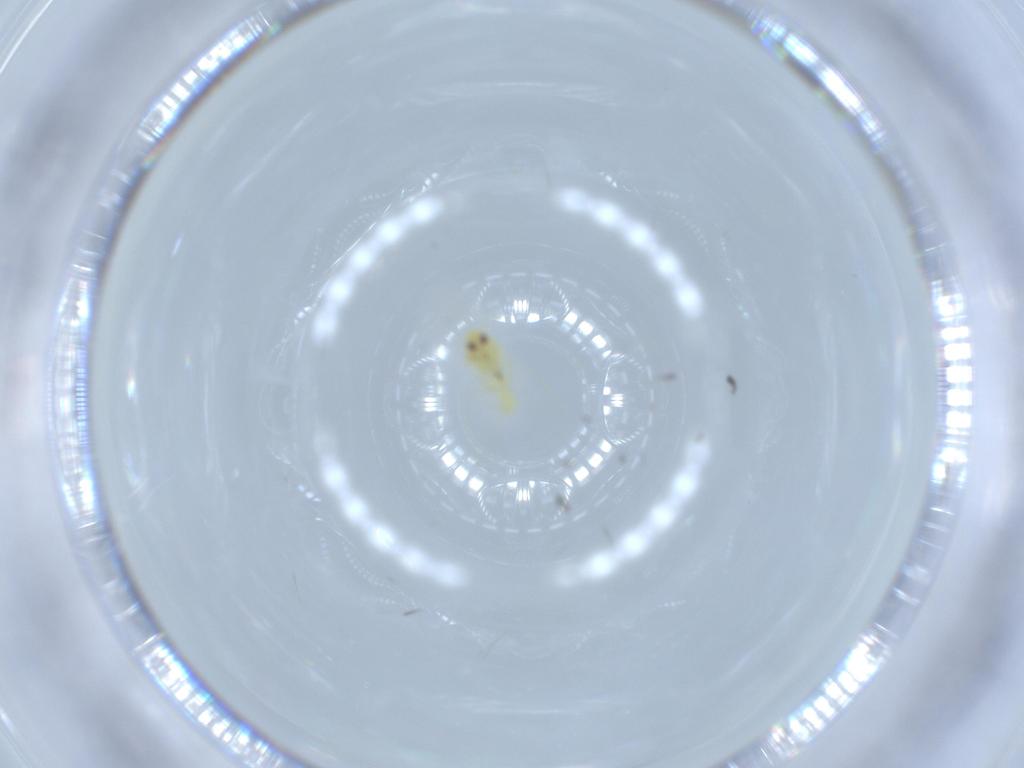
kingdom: Animalia
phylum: Arthropoda
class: Insecta
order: Hemiptera
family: Aleyrodidae
